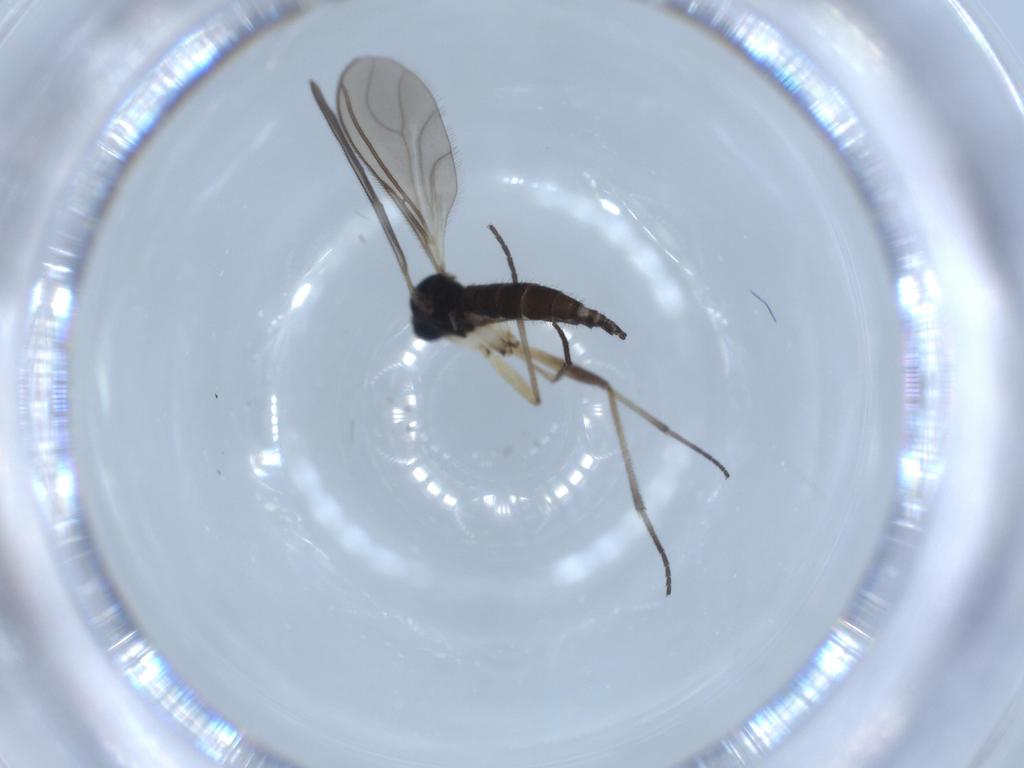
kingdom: Animalia
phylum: Arthropoda
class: Insecta
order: Diptera
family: Sciaridae
